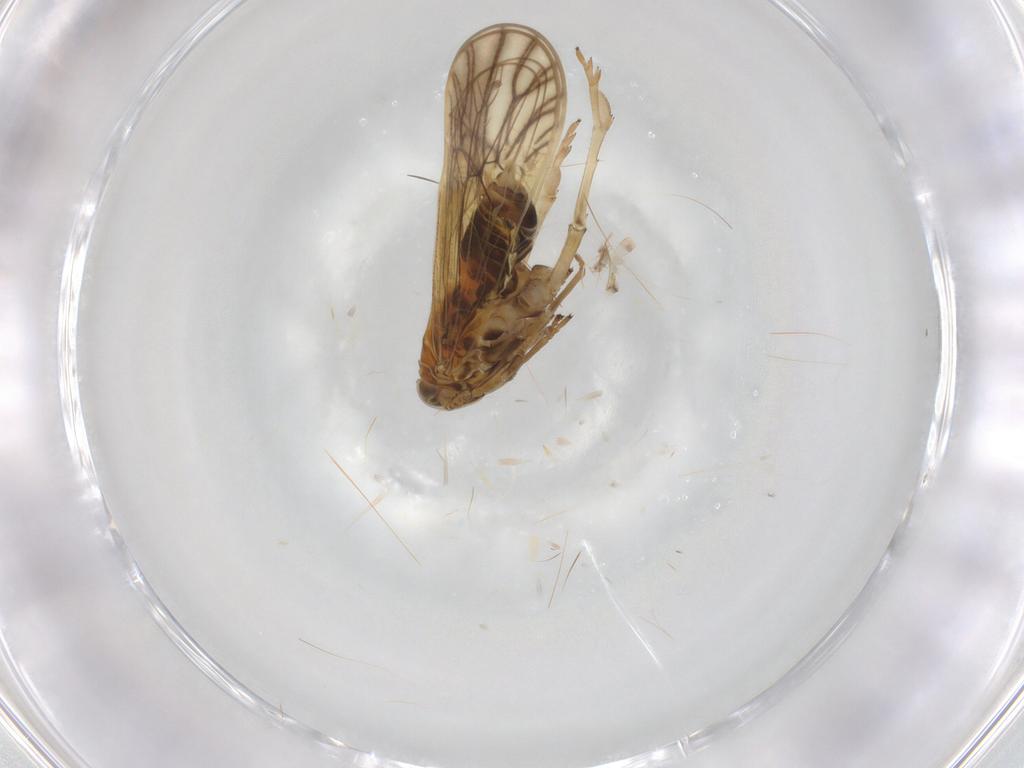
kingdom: Animalia
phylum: Arthropoda
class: Insecta
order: Hemiptera
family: Delphacidae
